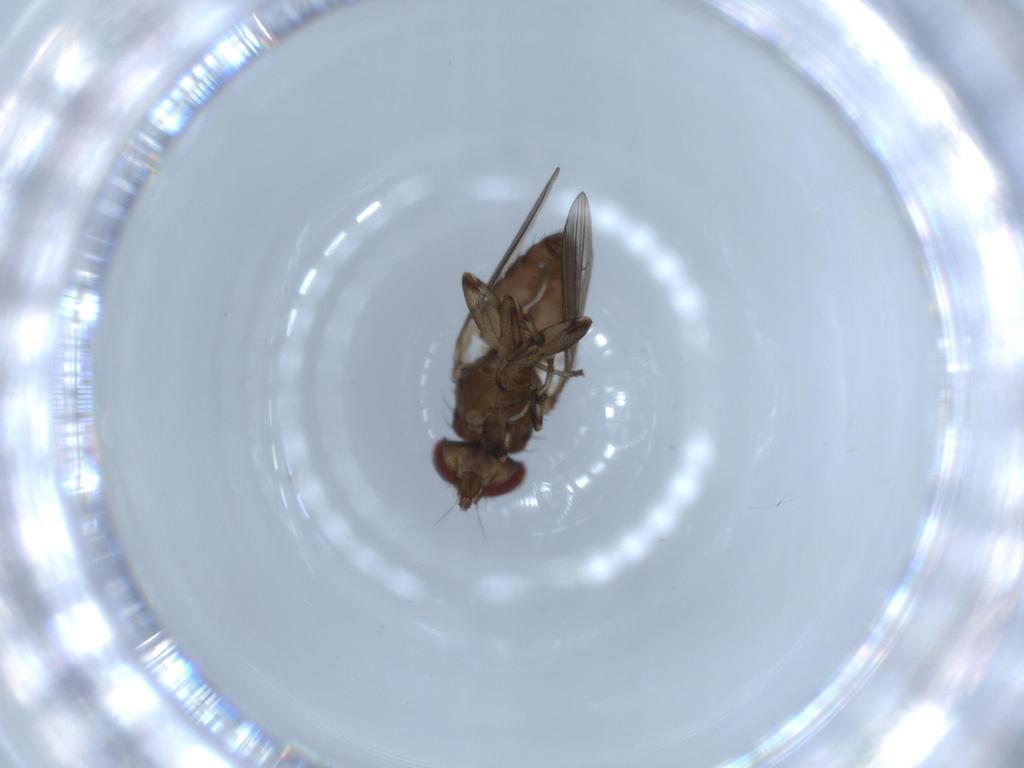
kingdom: Animalia
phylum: Arthropoda
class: Insecta
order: Diptera
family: Heleomyzidae
